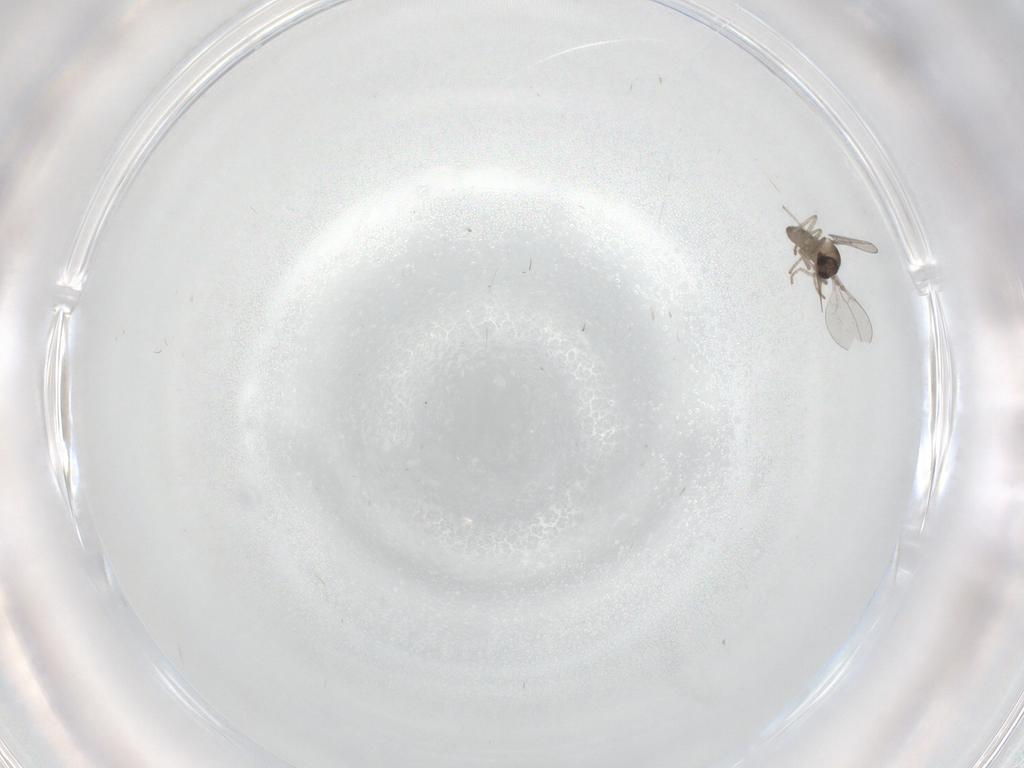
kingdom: Animalia
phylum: Arthropoda
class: Insecta
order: Diptera
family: Cecidomyiidae
